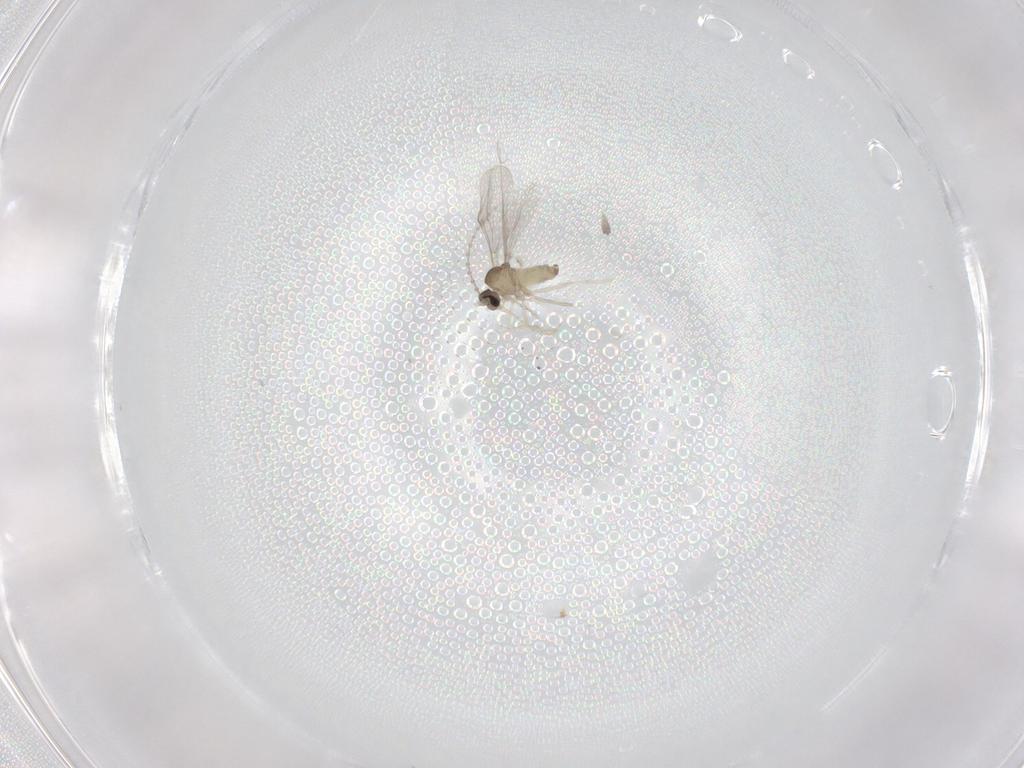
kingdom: Animalia
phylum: Arthropoda
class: Insecta
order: Diptera
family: Cecidomyiidae
